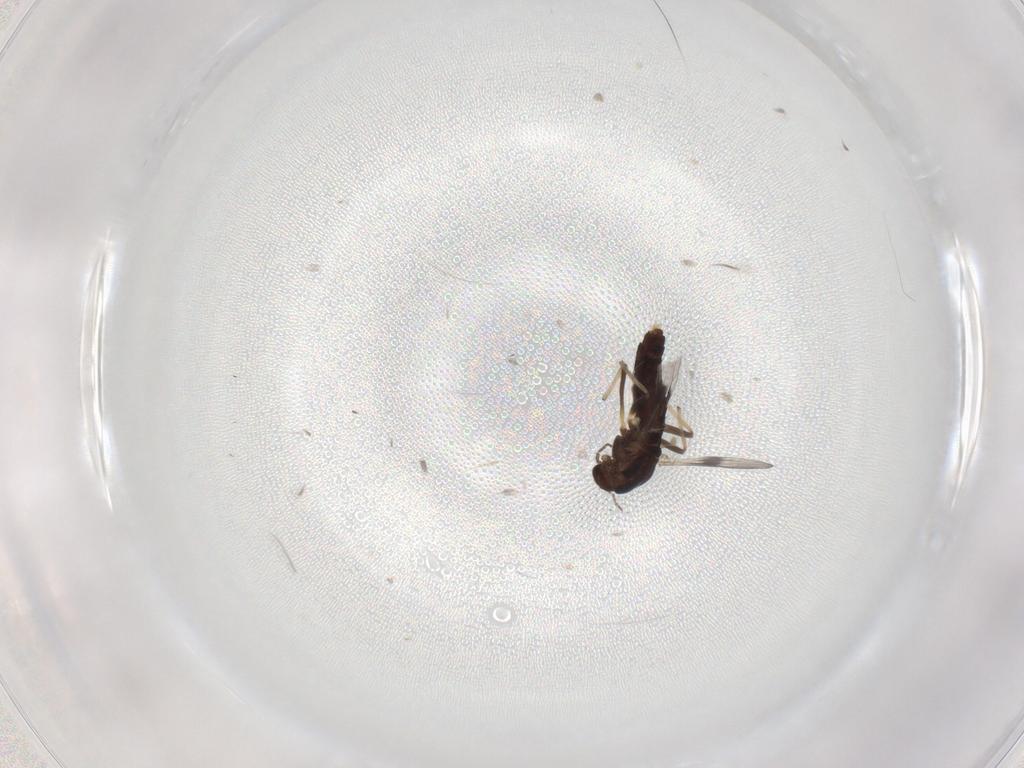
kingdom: Animalia
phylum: Arthropoda
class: Insecta
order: Diptera
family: Chironomidae
